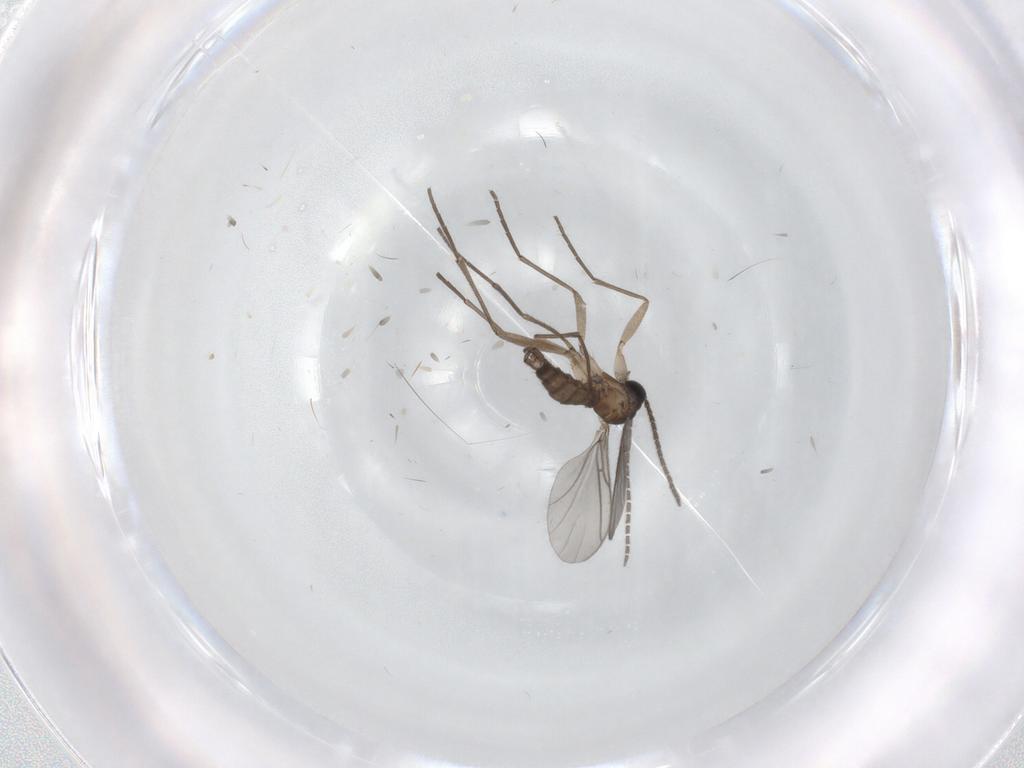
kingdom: Animalia
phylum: Arthropoda
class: Insecta
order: Diptera
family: Sciaridae
